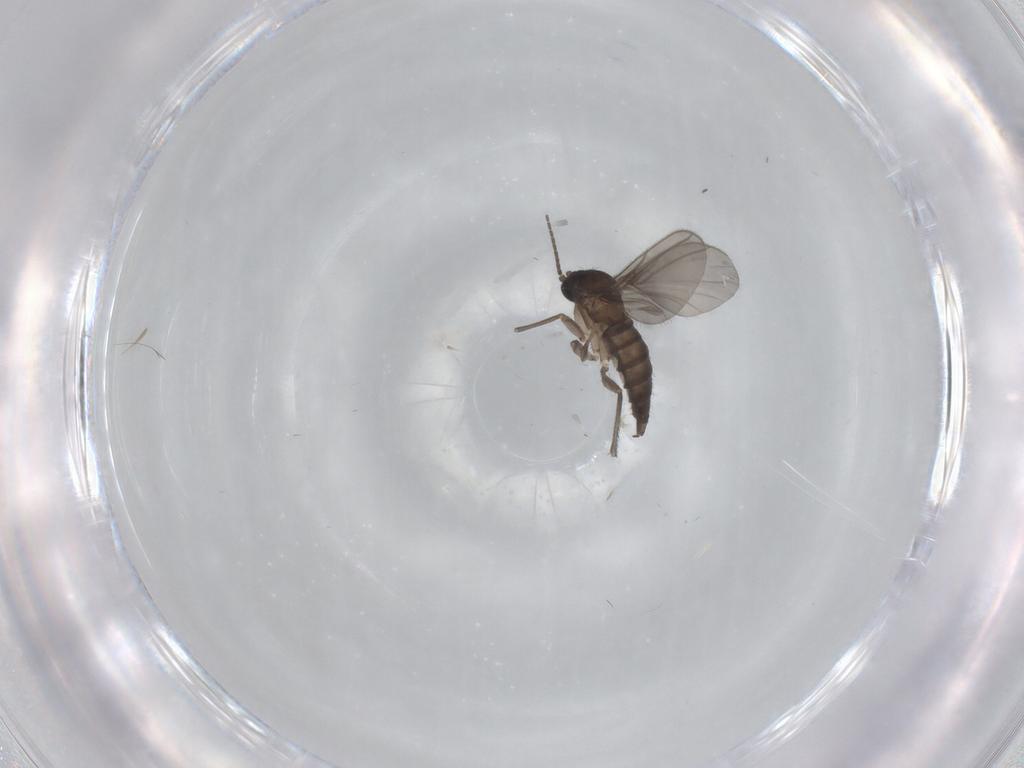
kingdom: Animalia
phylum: Arthropoda
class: Insecta
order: Diptera
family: Sciaridae
